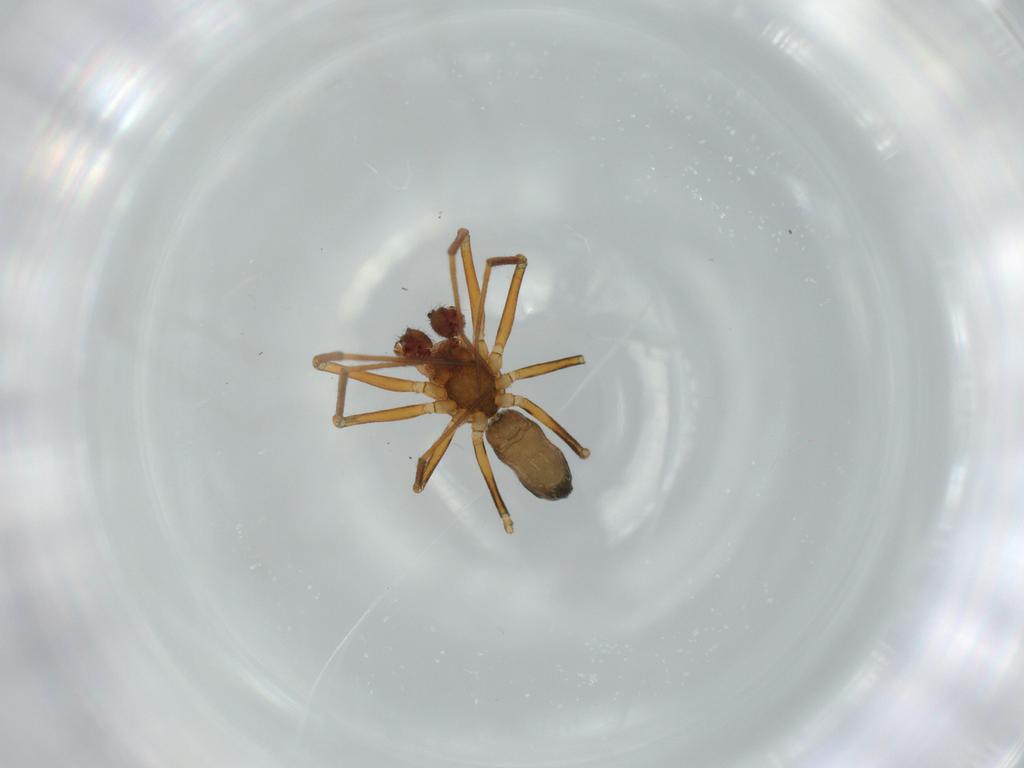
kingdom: Animalia
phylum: Arthropoda
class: Arachnida
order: Araneae
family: Linyphiidae
